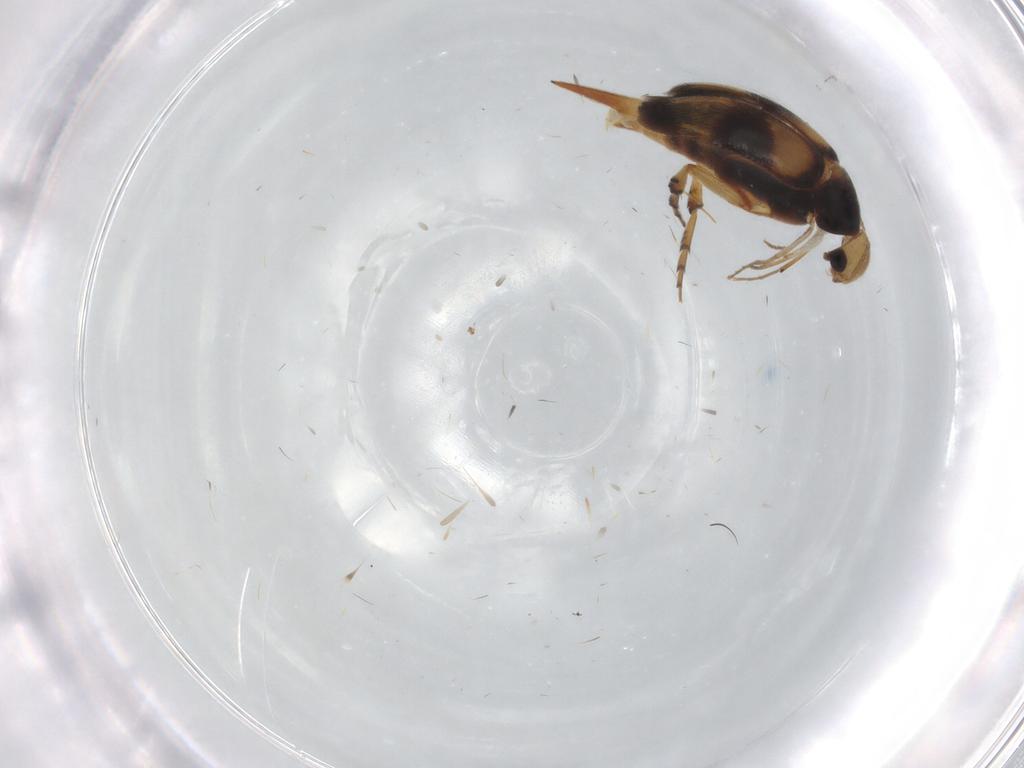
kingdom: Animalia
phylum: Arthropoda
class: Insecta
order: Coleoptera
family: Mordellidae
